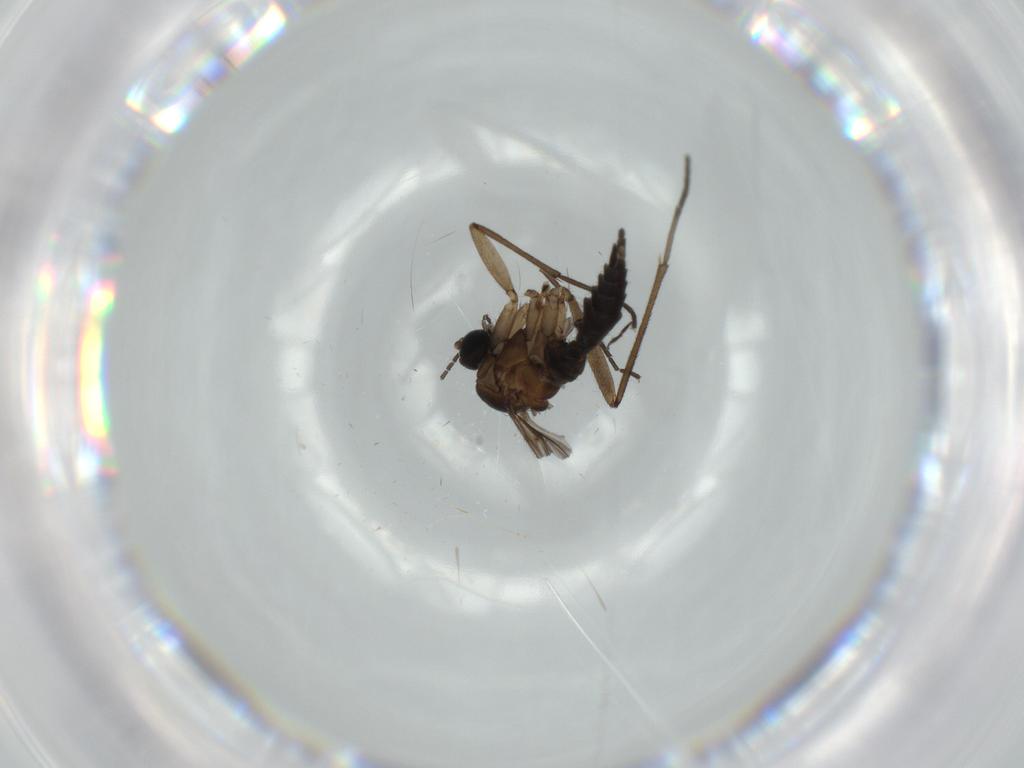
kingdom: Animalia
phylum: Arthropoda
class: Insecta
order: Diptera
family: Sciaridae
